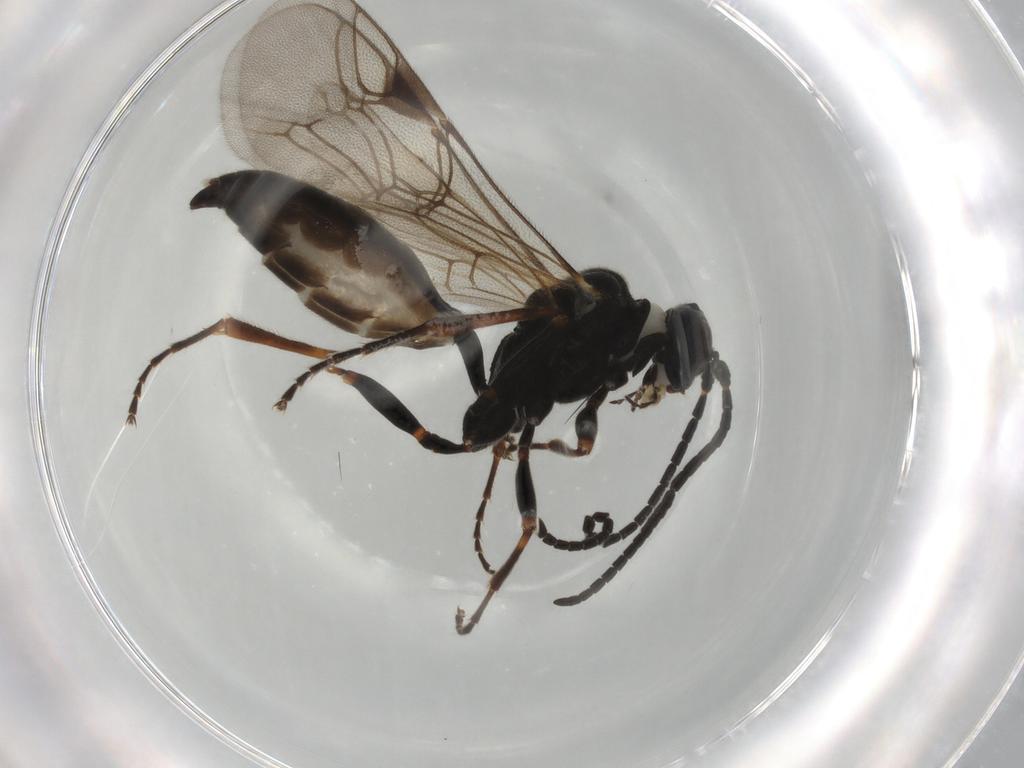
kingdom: Animalia
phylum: Arthropoda
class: Insecta
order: Hymenoptera
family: Ichneumonidae
